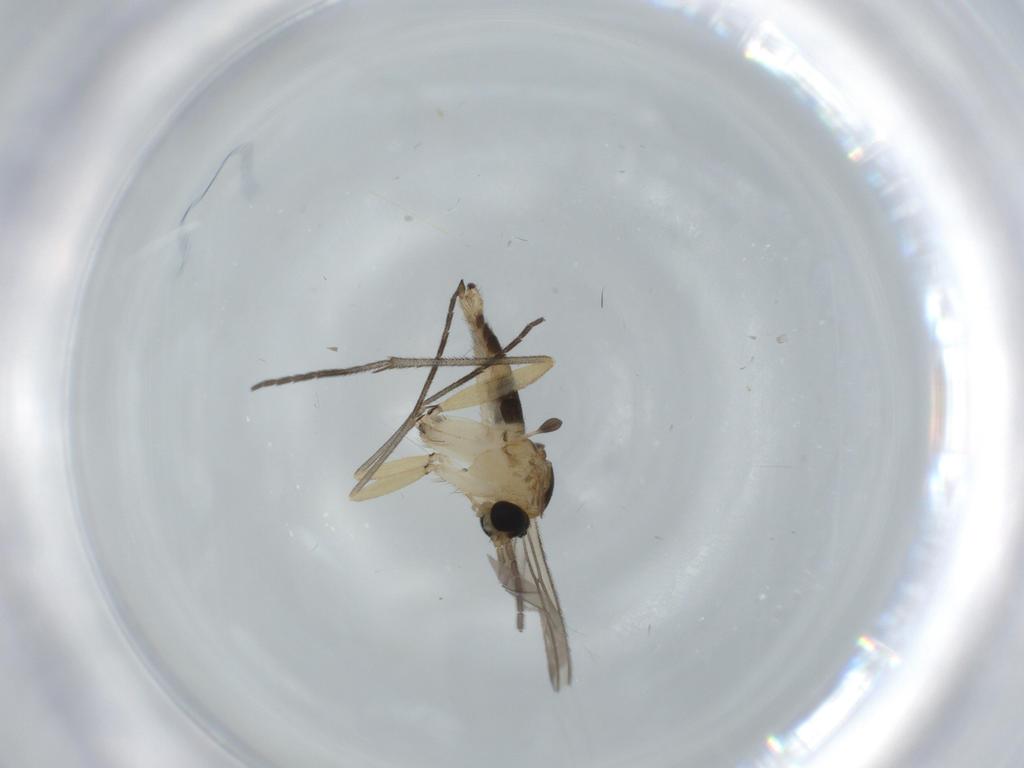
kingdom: Animalia
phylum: Arthropoda
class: Insecta
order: Diptera
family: Sciaridae
